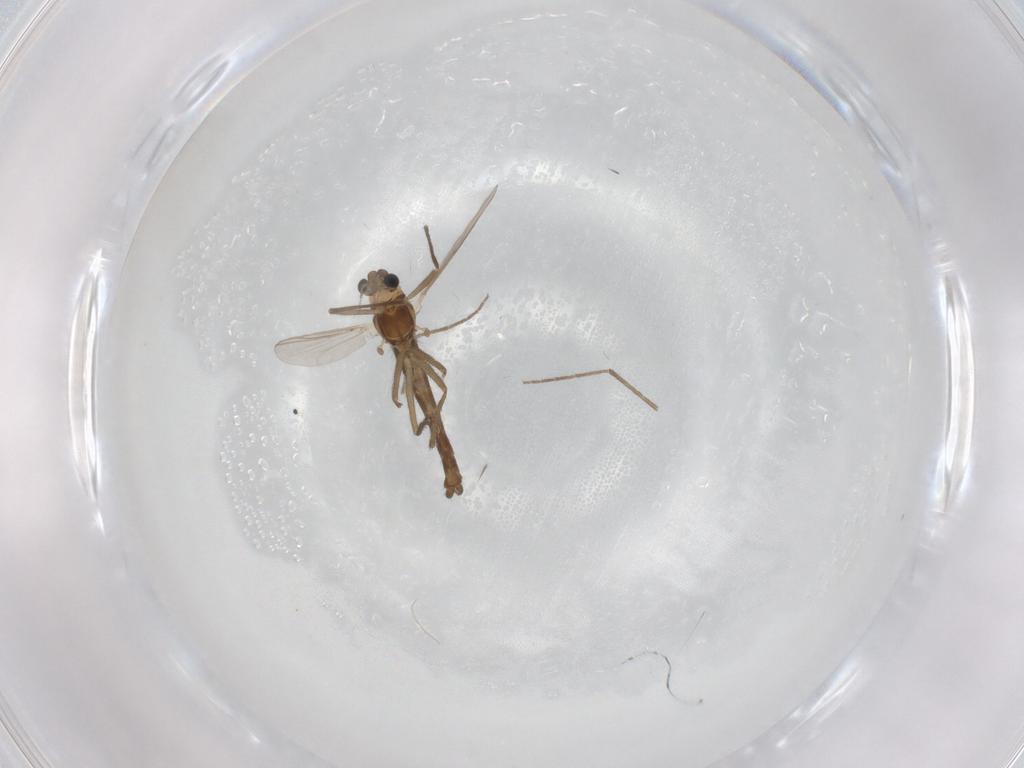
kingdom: Animalia
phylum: Arthropoda
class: Insecta
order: Diptera
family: Chironomidae
